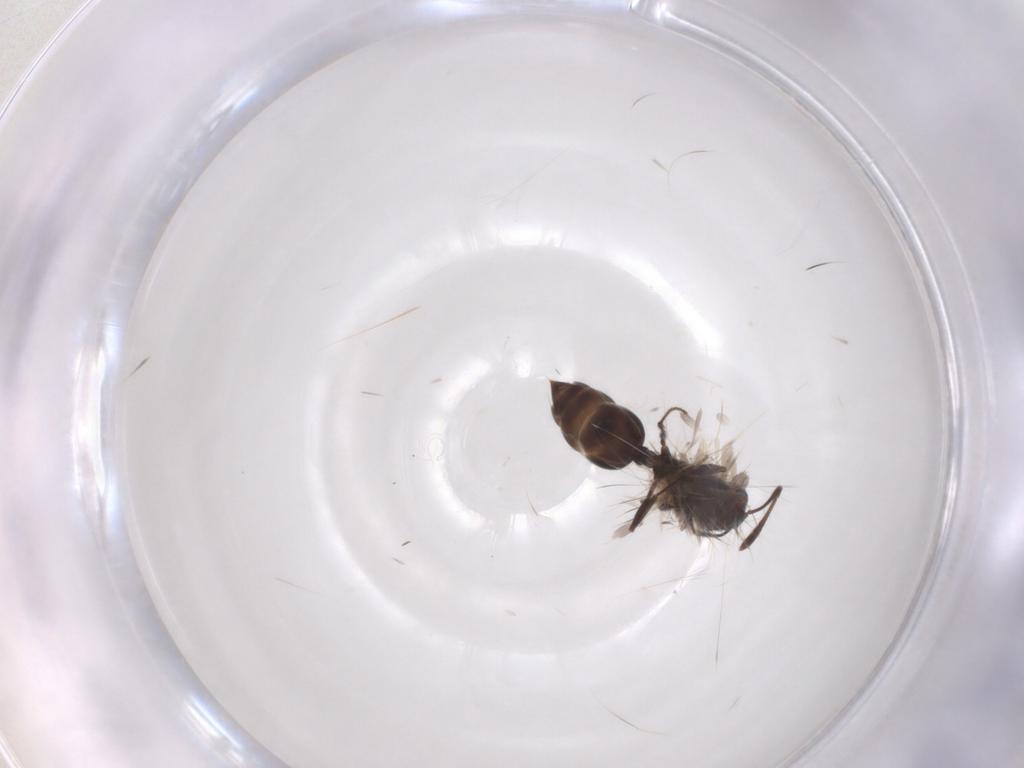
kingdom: Animalia
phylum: Arthropoda
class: Insecta
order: Hymenoptera
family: Formicidae
